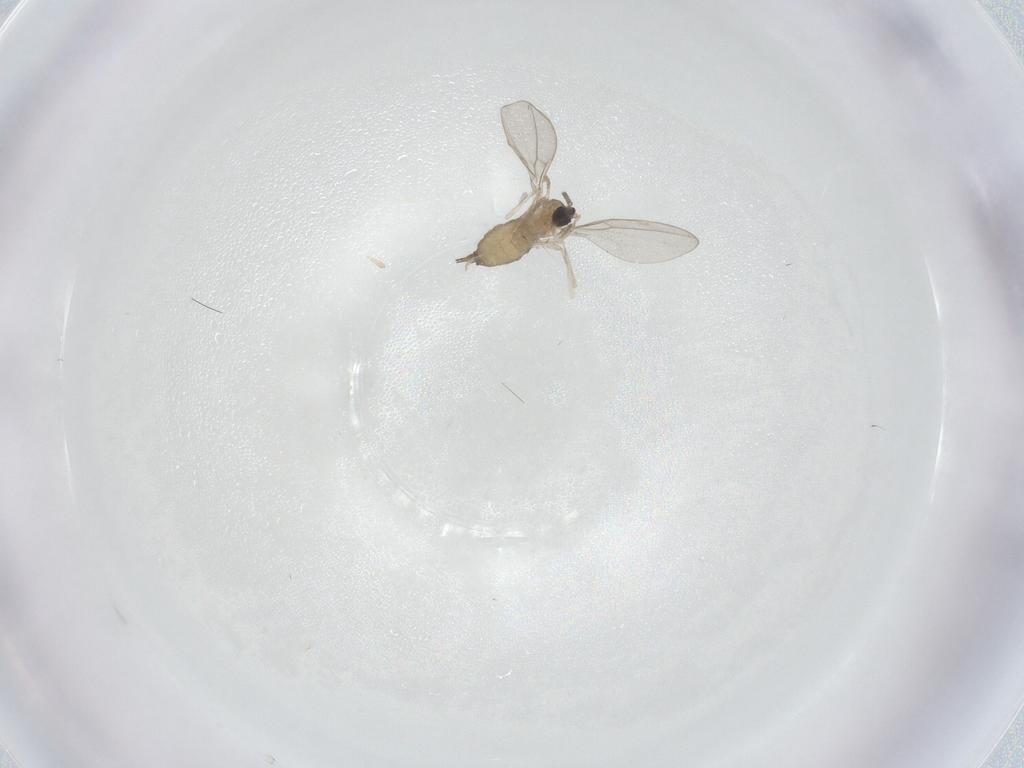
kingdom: Animalia
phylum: Arthropoda
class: Insecta
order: Diptera
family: Cecidomyiidae
